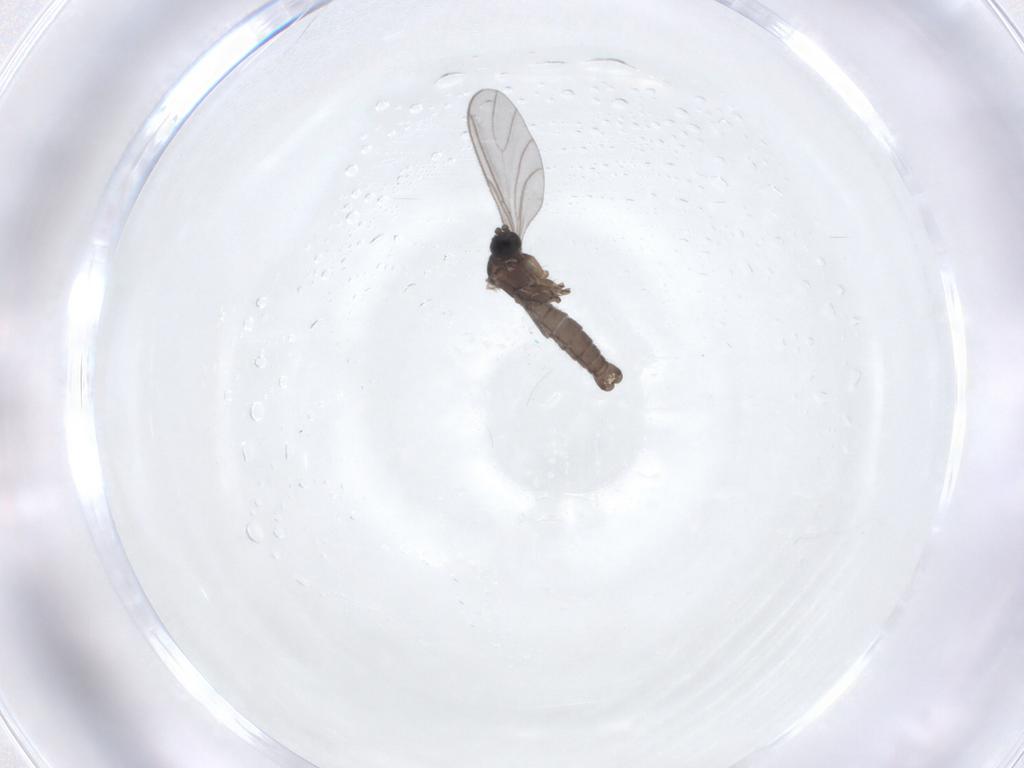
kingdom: Animalia
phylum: Arthropoda
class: Insecta
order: Diptera
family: Sciaridae
